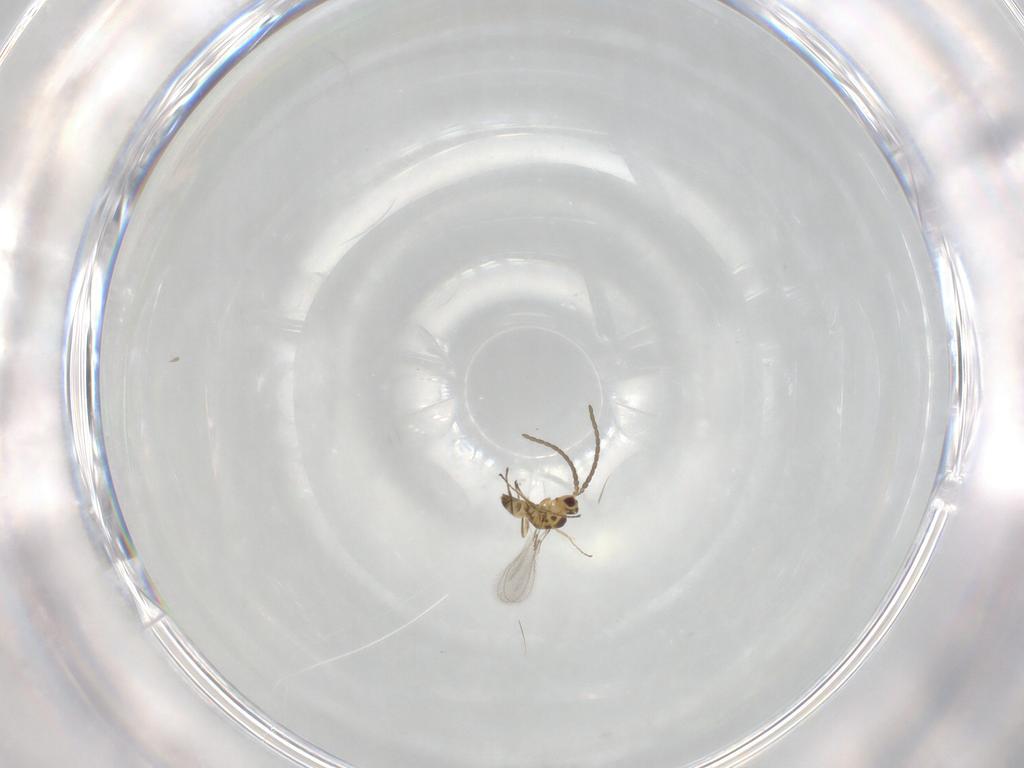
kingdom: Animalia
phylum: Arthropoda
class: Insecta
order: Hymenoptera
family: Mymaridae
